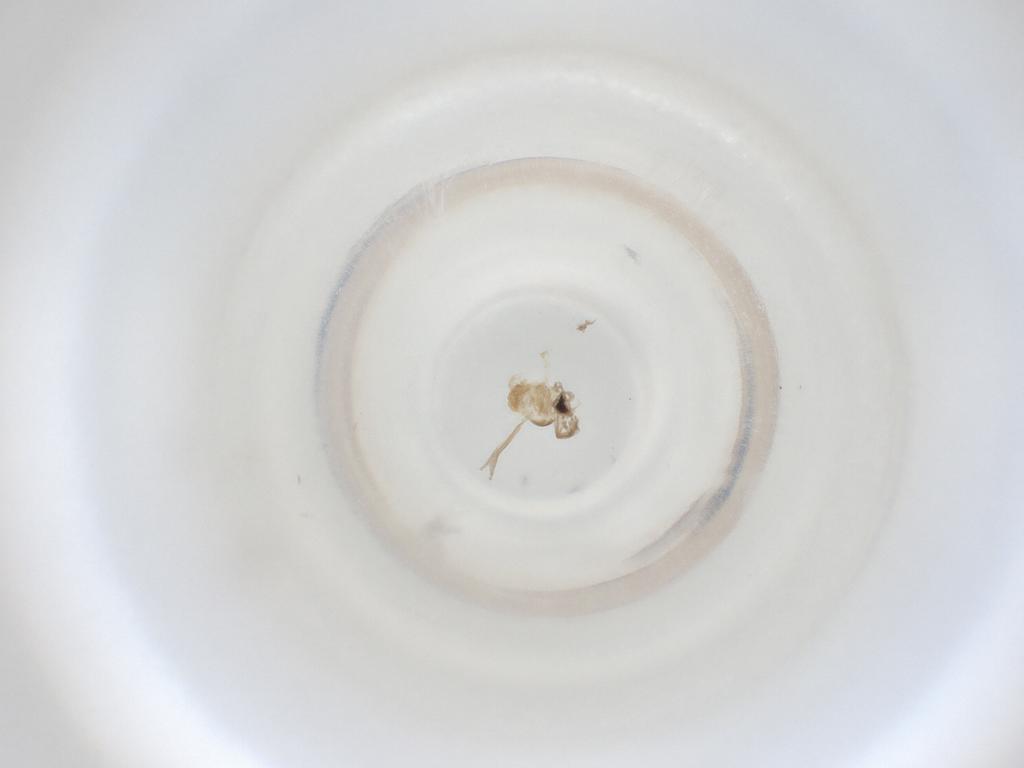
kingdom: Animalia
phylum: Arthropoda
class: Insecta
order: Diptera
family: Cecidomyiidae
